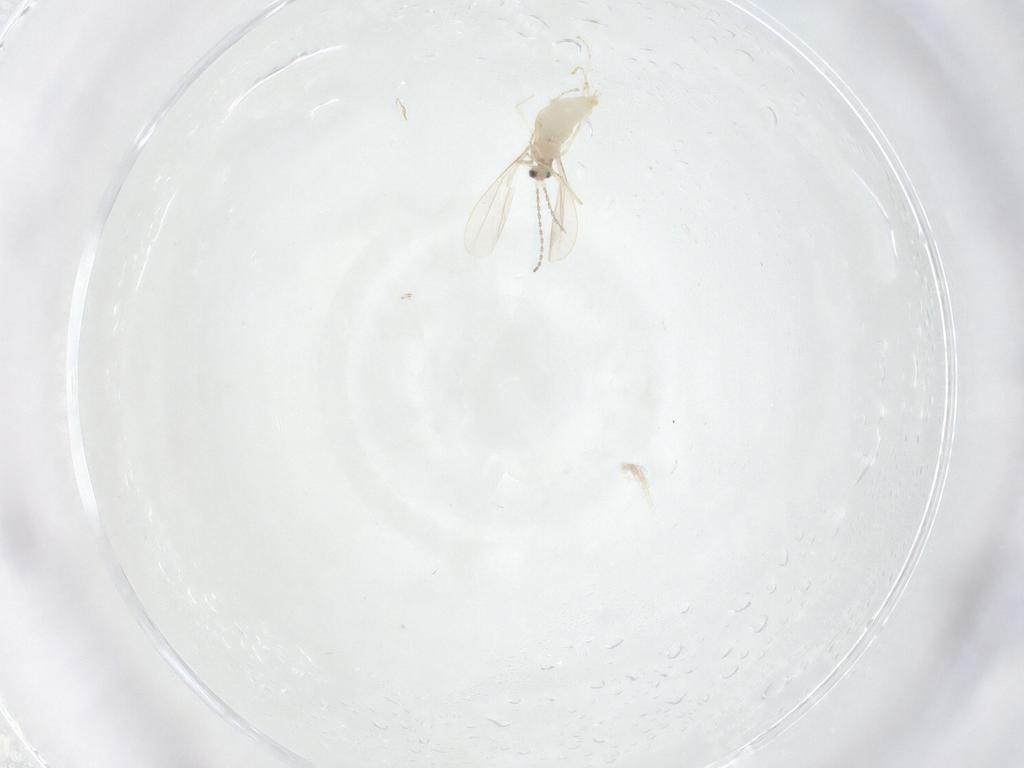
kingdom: Animalia
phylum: Arthropoda
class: Insecta
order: Diptera
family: Cecidomyiidae
